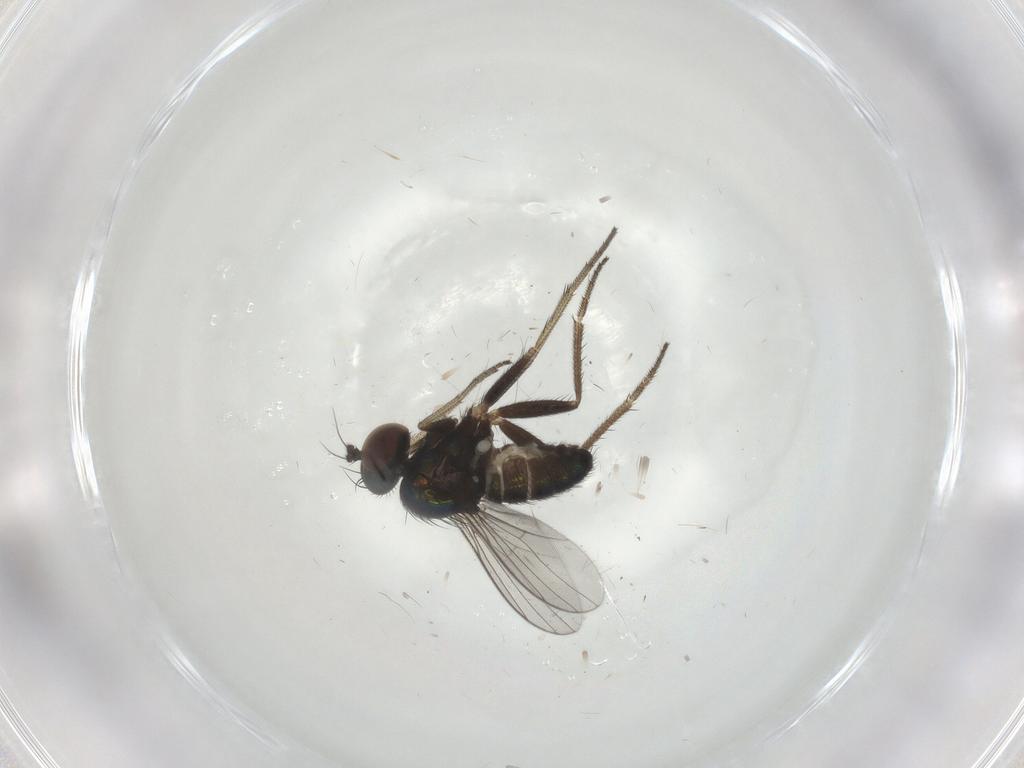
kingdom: Animalia
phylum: Arthropoda
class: Insecta
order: Diptera
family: Dolichopodidae
